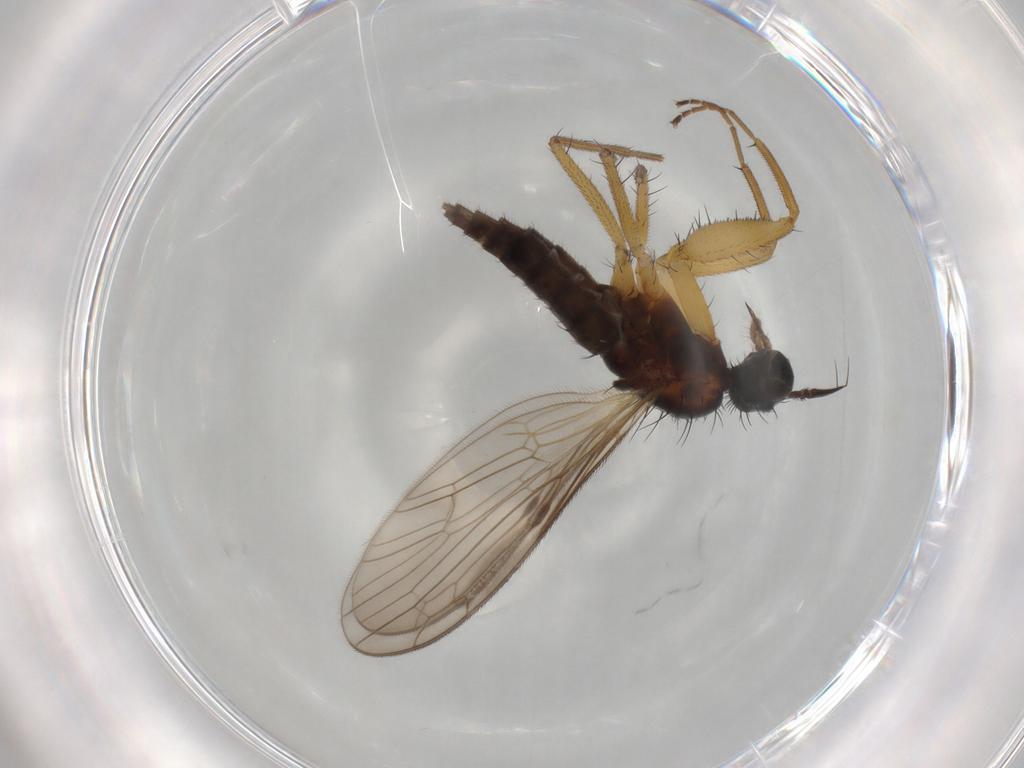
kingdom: Animalia
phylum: Arthropoda
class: Insecta
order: Diptera
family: Empididae
